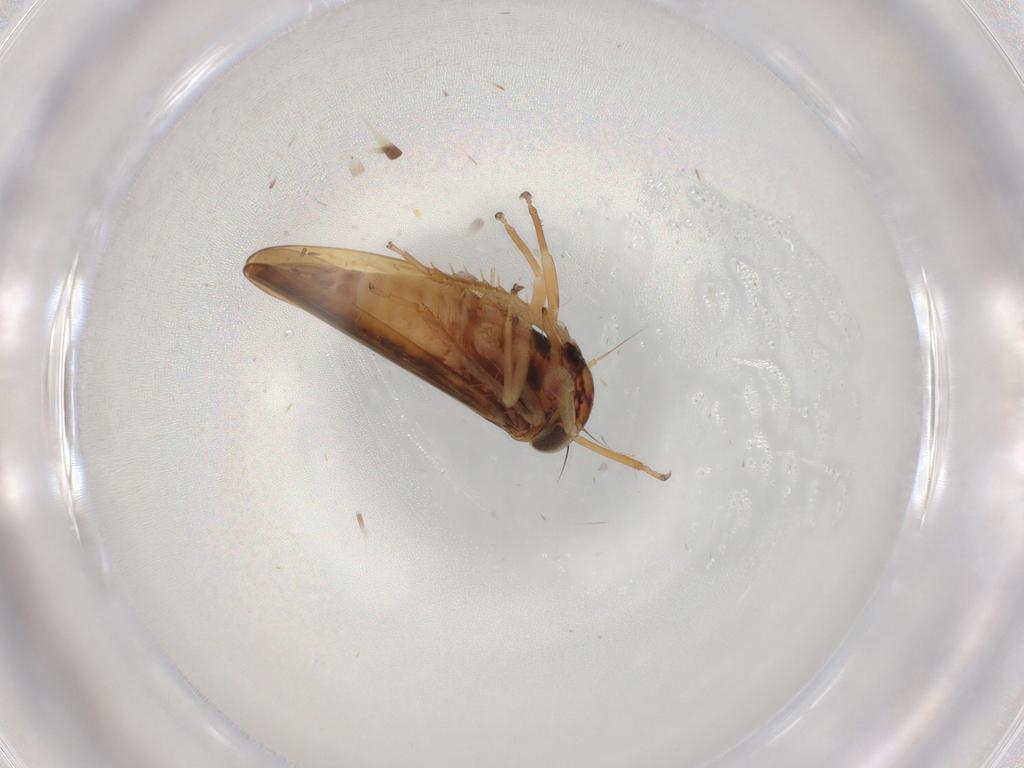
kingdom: Animalia
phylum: Arthropoda
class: Insecta
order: Hemiptera
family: Cicadellidae
